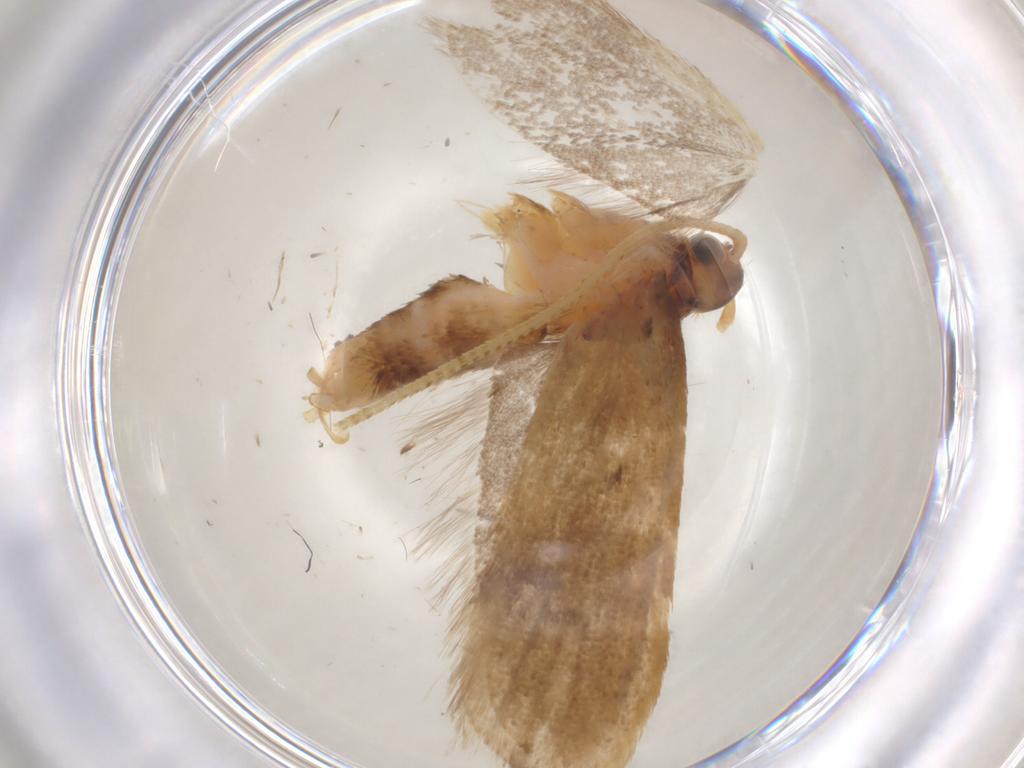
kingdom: Animalia
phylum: Arthropoda
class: Insecta
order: Lepidoptera
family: Lecithoceridae
